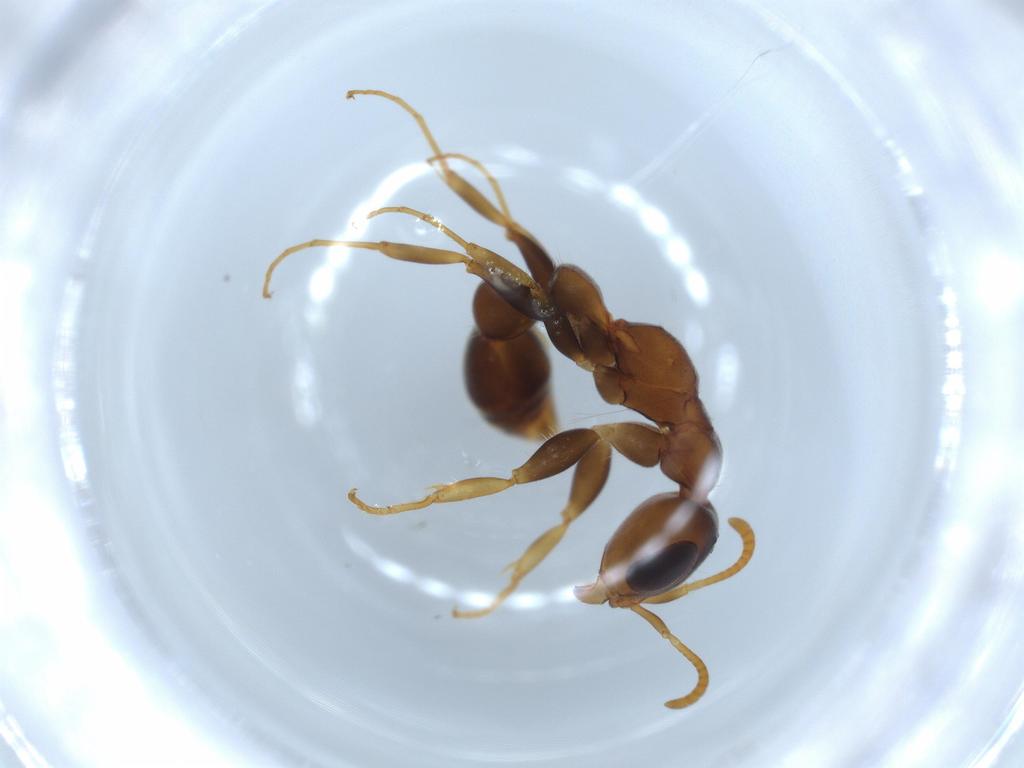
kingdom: Animalia
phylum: Arthropoda
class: Insecta
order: Hymenoptera
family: Formicidae
